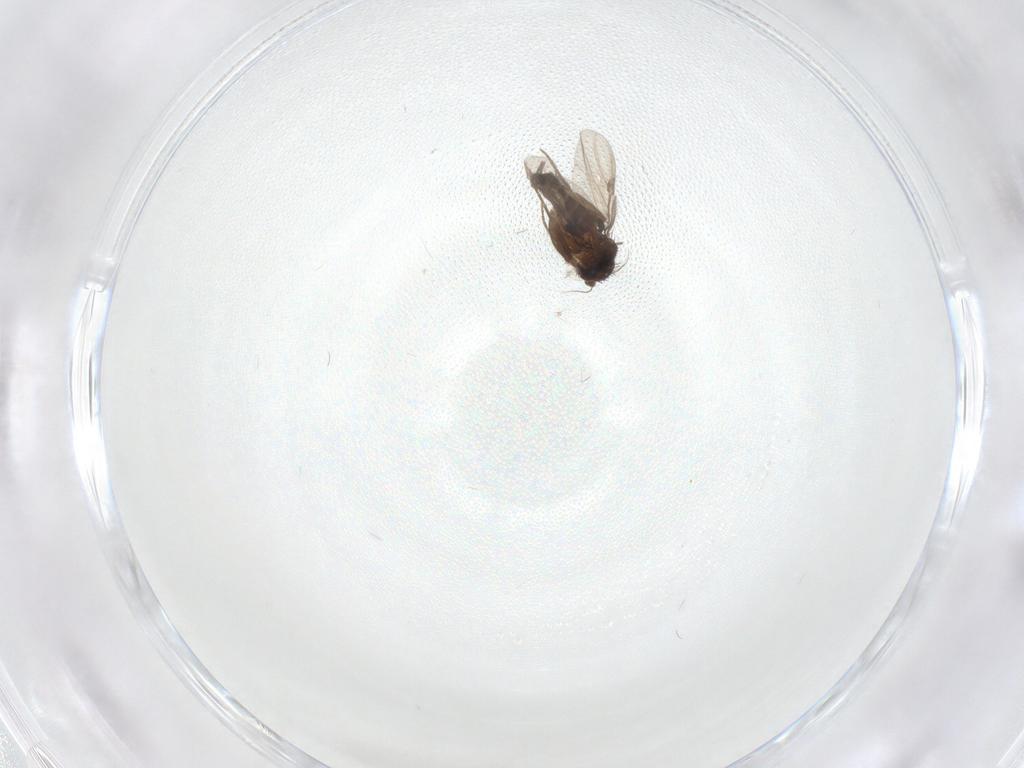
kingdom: Animalia
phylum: Arthropoda
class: Insecta
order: Diptera
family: Phoridae
